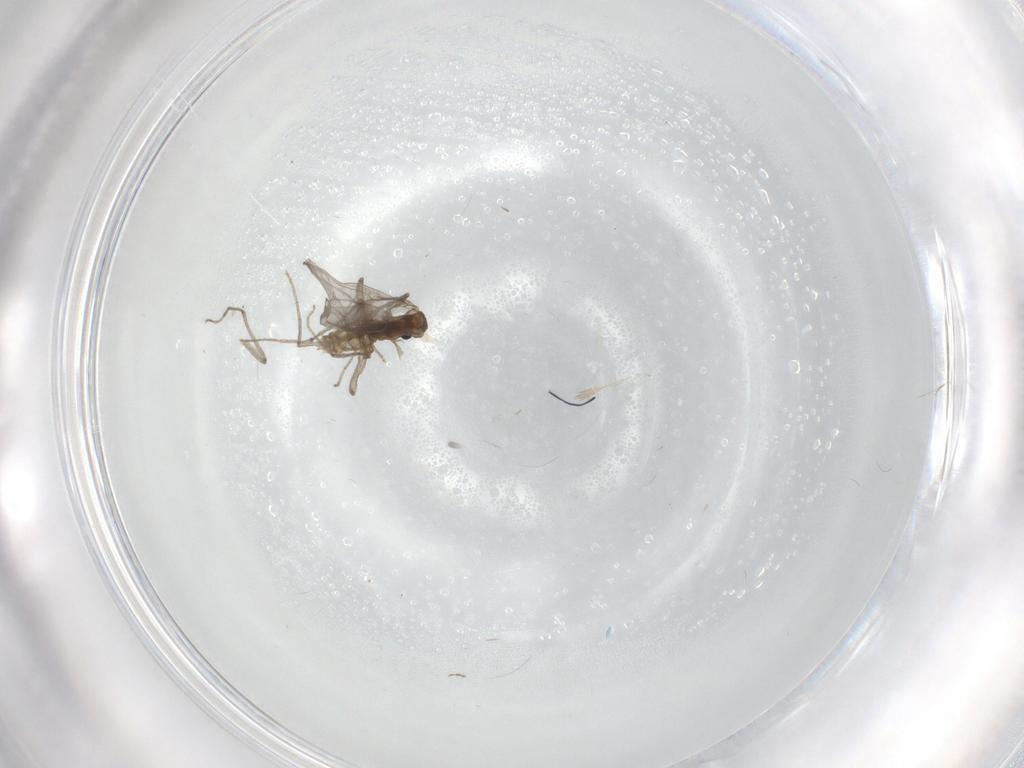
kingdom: Animalia
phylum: Arthropoda
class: Insecta
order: Diptera
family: Chironomidae
